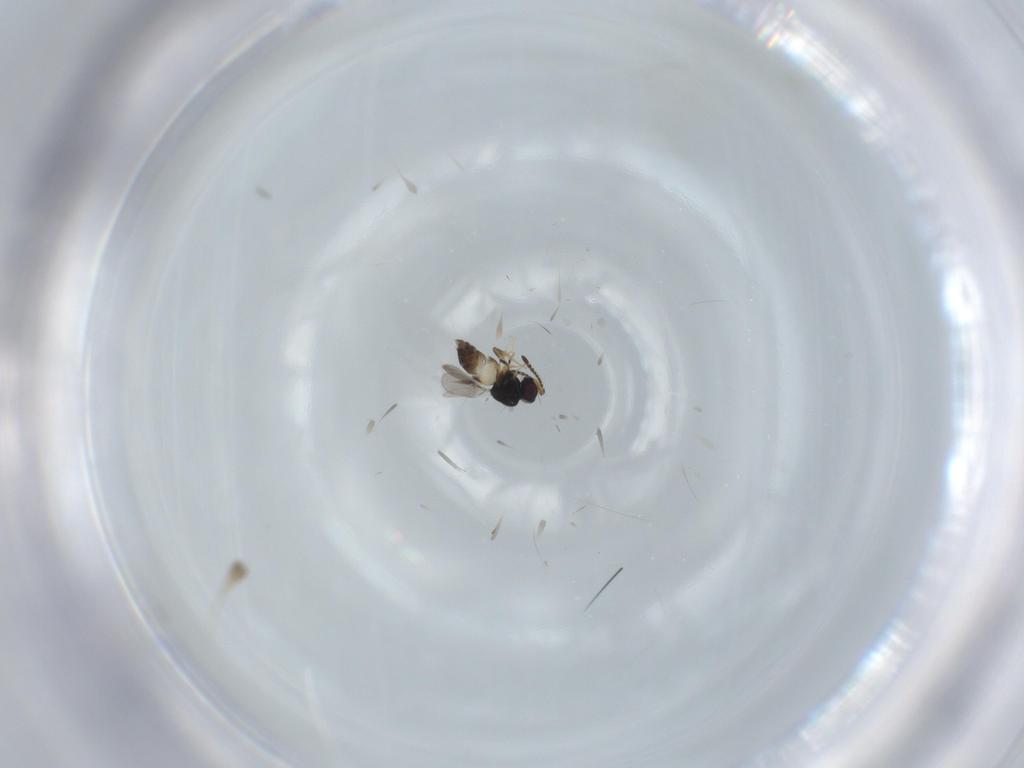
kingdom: Animalia
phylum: Arthropoda
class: Insecta
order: Hymenoptera
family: Ceraphronidae
